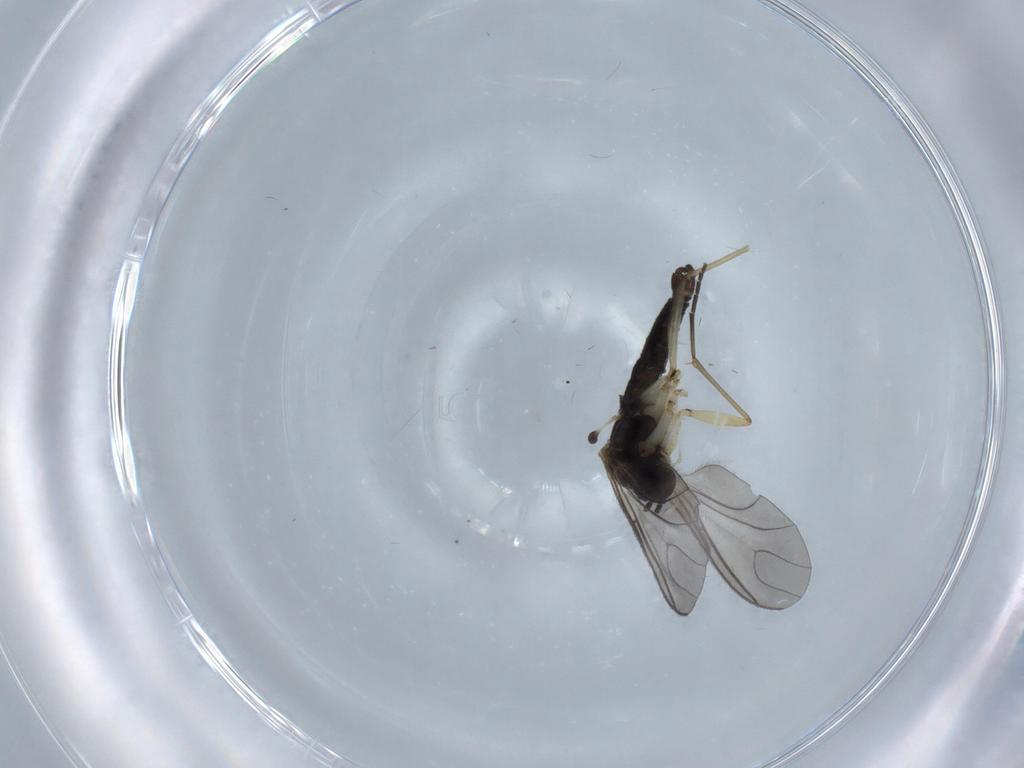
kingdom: Animalia
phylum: Arthropoda
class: Insecta
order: Diptera
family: Sciaridae
